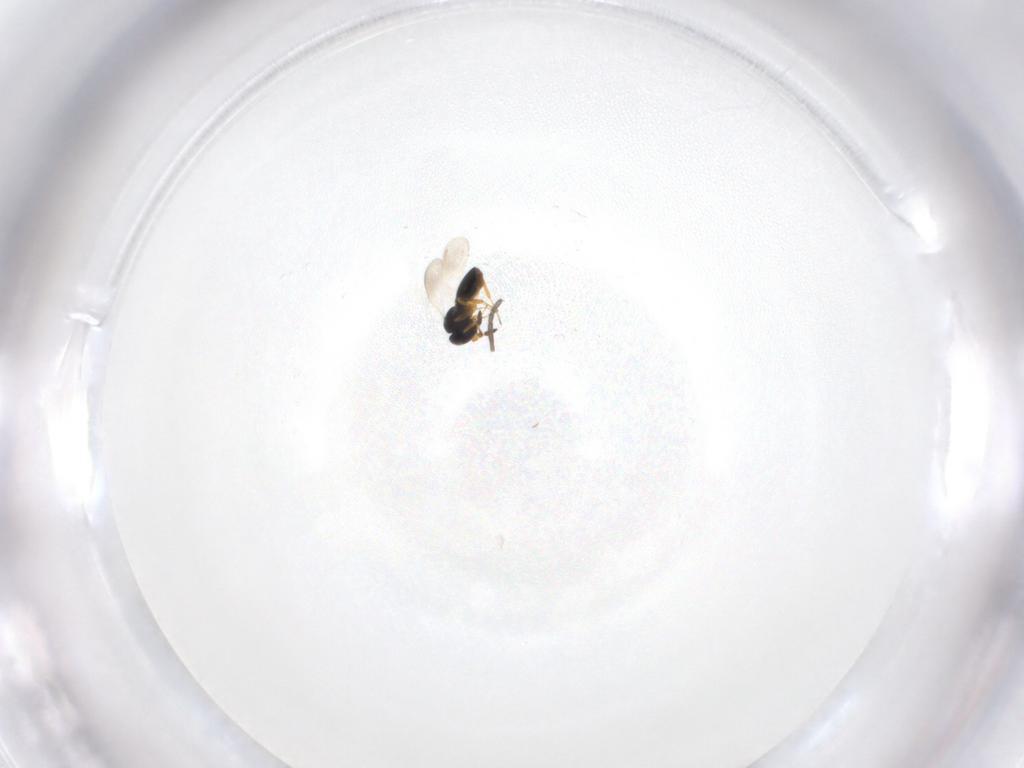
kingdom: Animalia
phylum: Arthropoda
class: Insecta
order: Hymenoptera
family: Platygastridae
